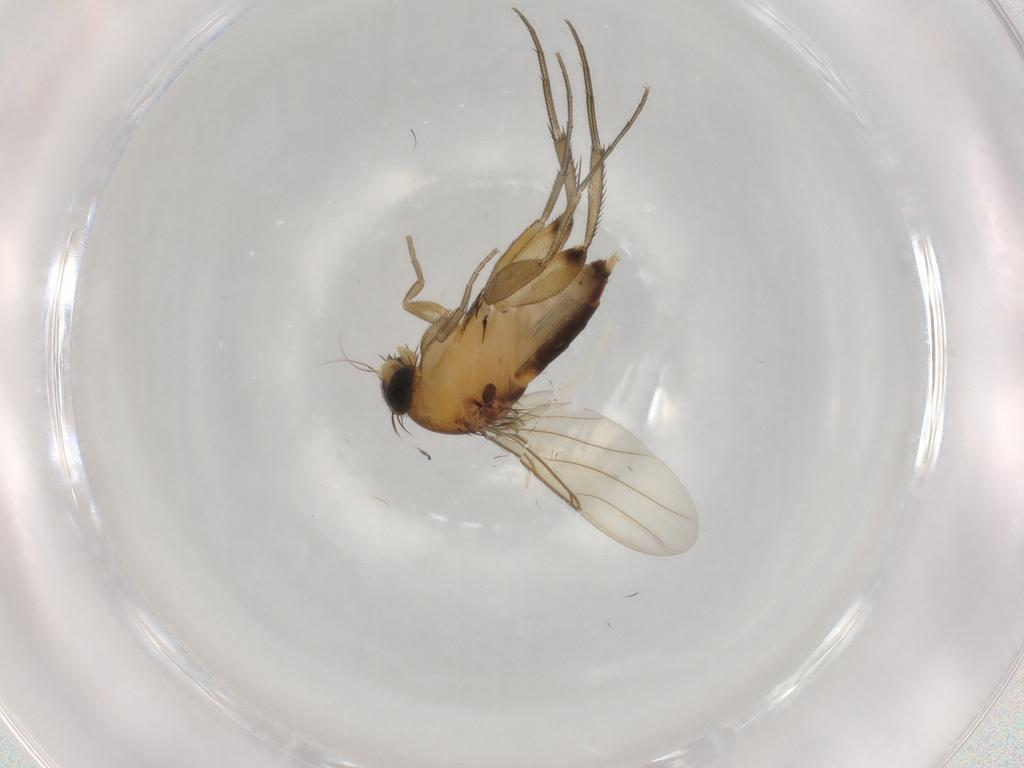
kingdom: Animalia
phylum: Arthropoda
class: Insecta
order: Diptera
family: Phoridae
